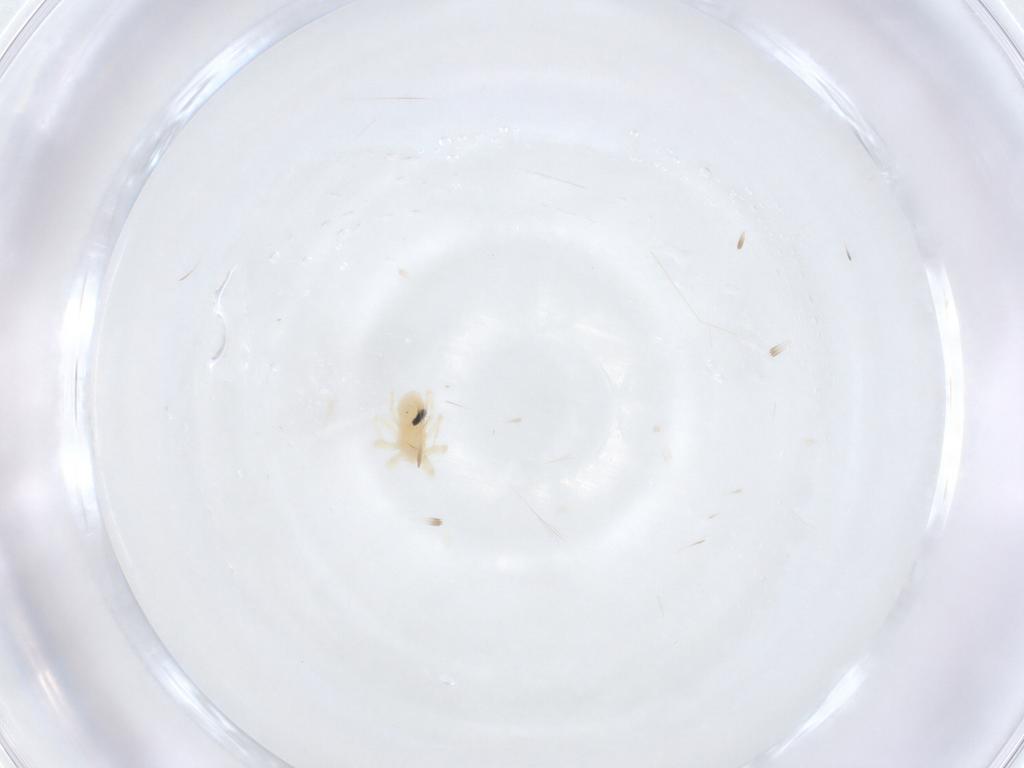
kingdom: Animalia
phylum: Arthropoda
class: Arachnida
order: Trombidiformes
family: Anystidae
